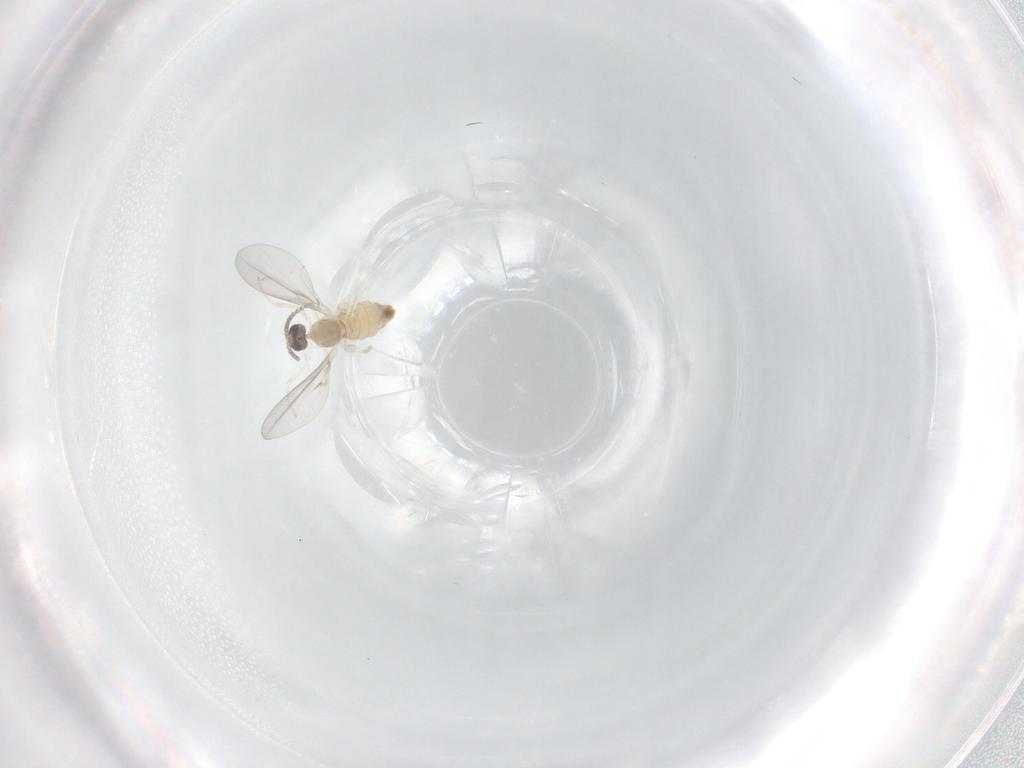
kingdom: Animalia
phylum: Arthropoda
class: Insecta
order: Diptera
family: Cecidomyiidae
